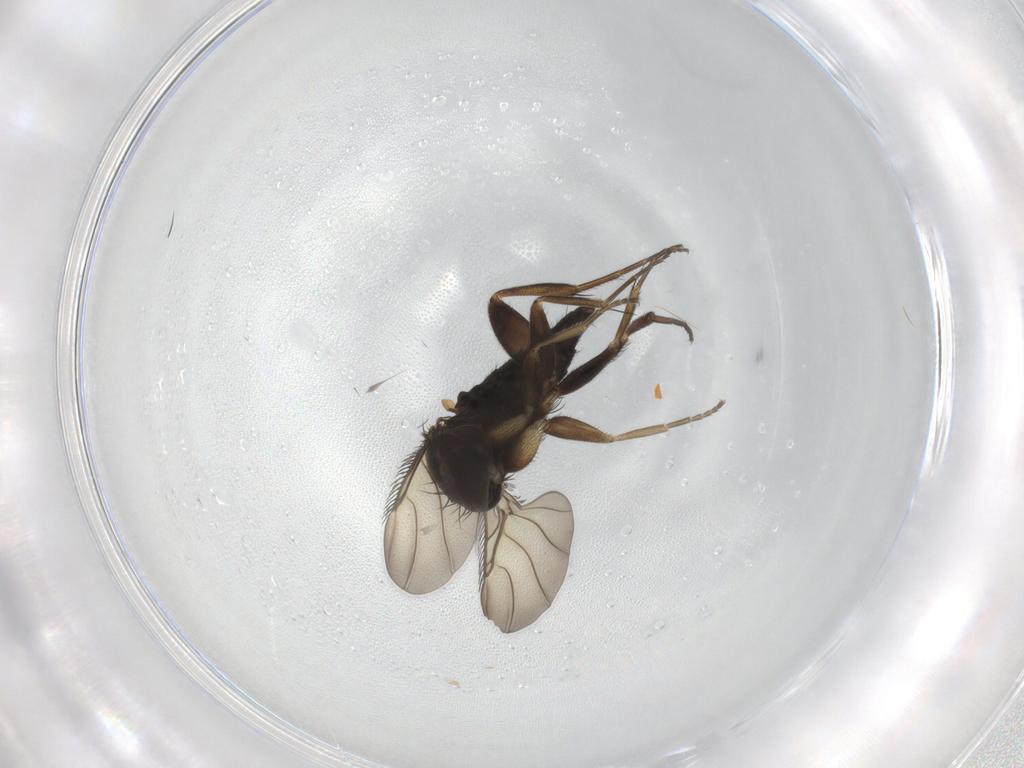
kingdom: Animalia
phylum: Arthropoda
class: Insecta
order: Diptera
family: Phoridae
